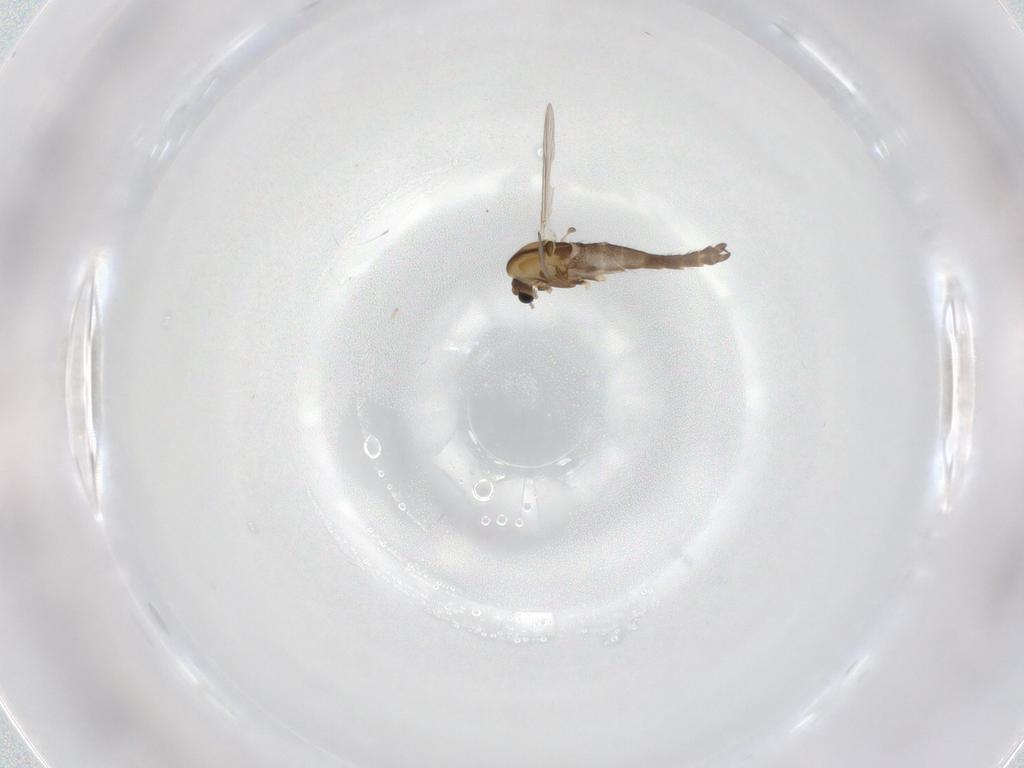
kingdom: Animalia
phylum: Arthropoda
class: Insecta
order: Diptera
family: Chironomidae
